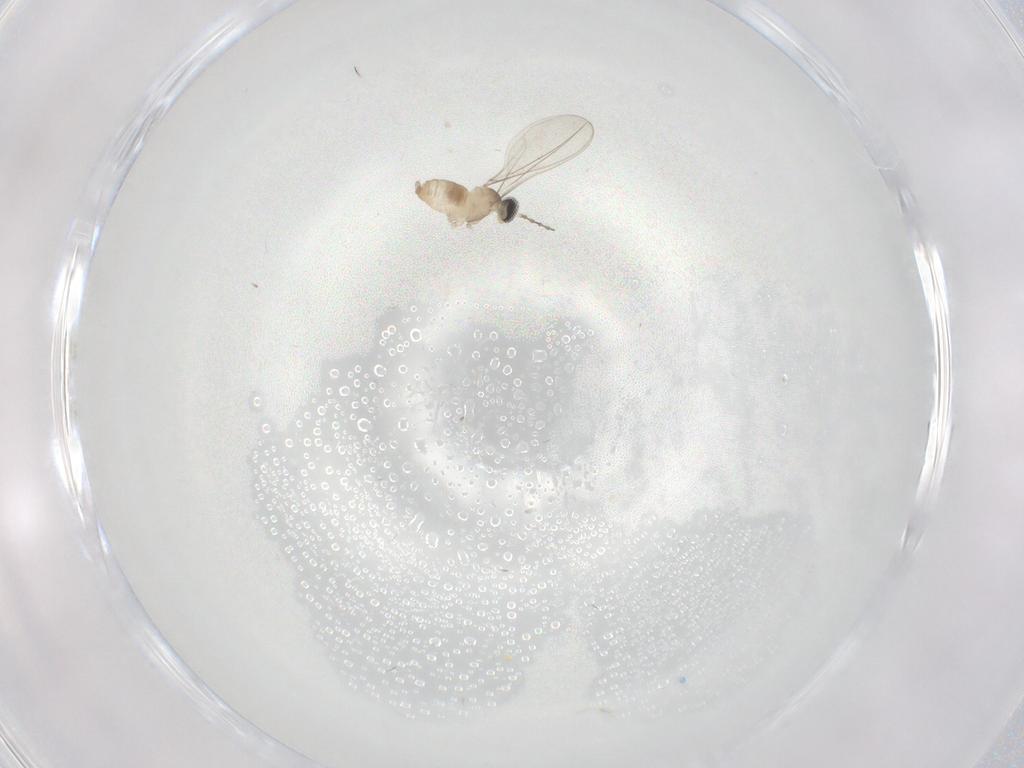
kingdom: Animalia
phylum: Arthropoda
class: Insecta
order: Diptera
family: Cecidomyiidae
